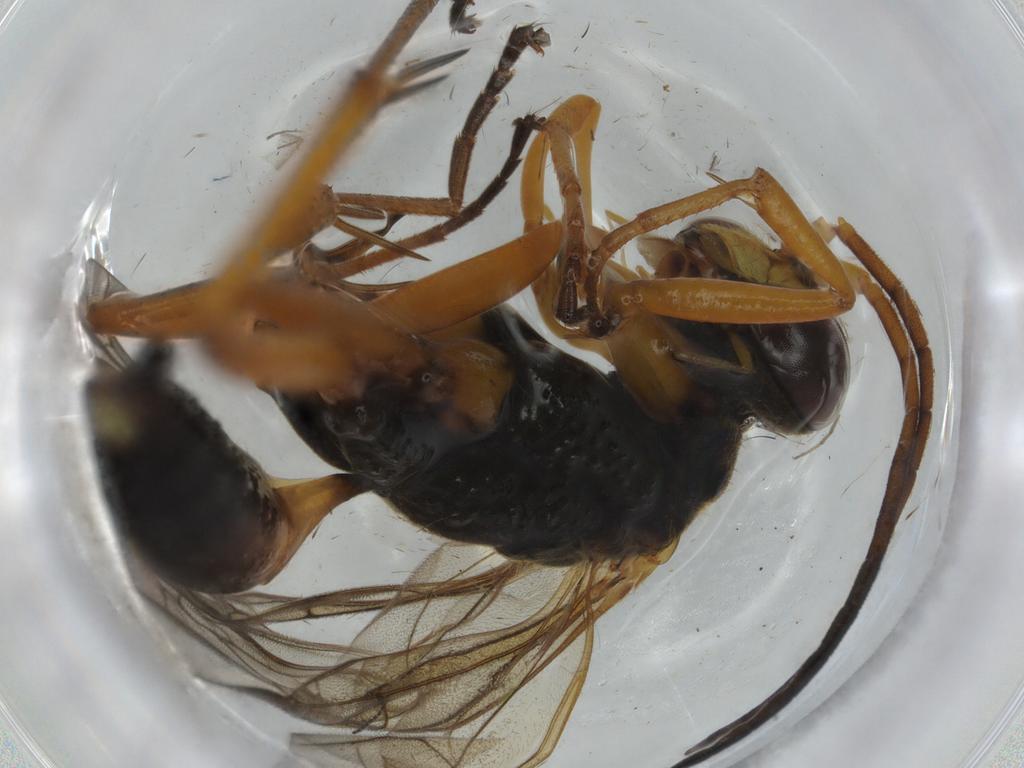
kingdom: Animalia
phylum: Arthropoda
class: Insecta
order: Hymenoptera
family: Pompilidae
